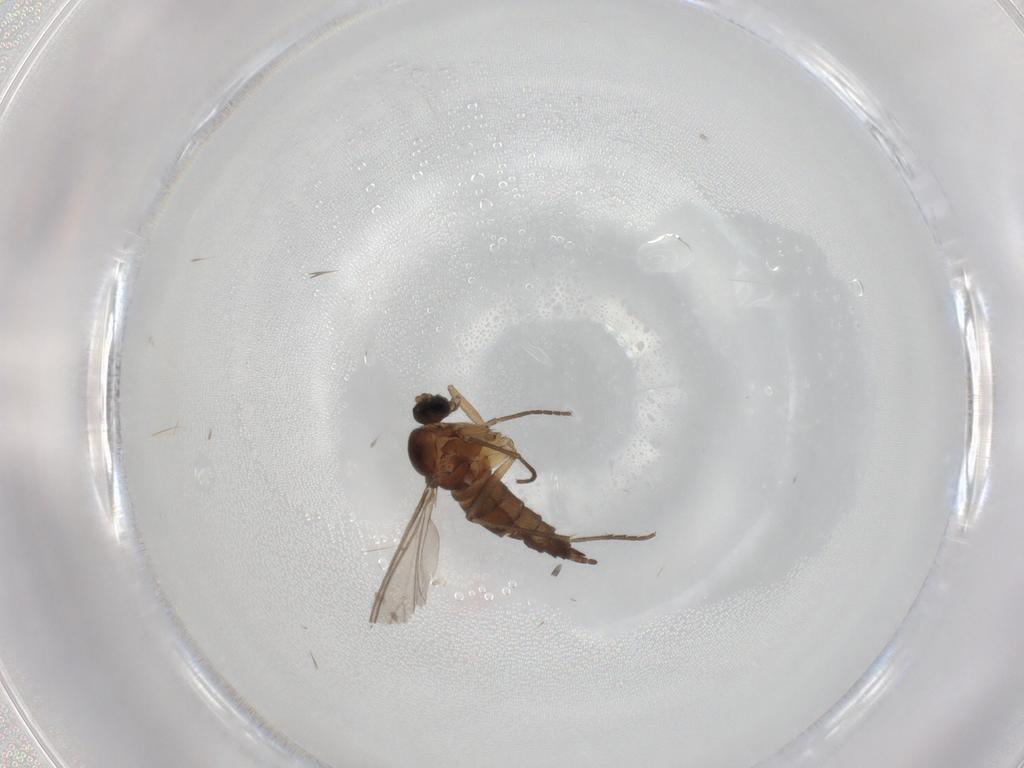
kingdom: Animalia
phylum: Arthropoda
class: Insecta
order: Diptera
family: Sciaridae
